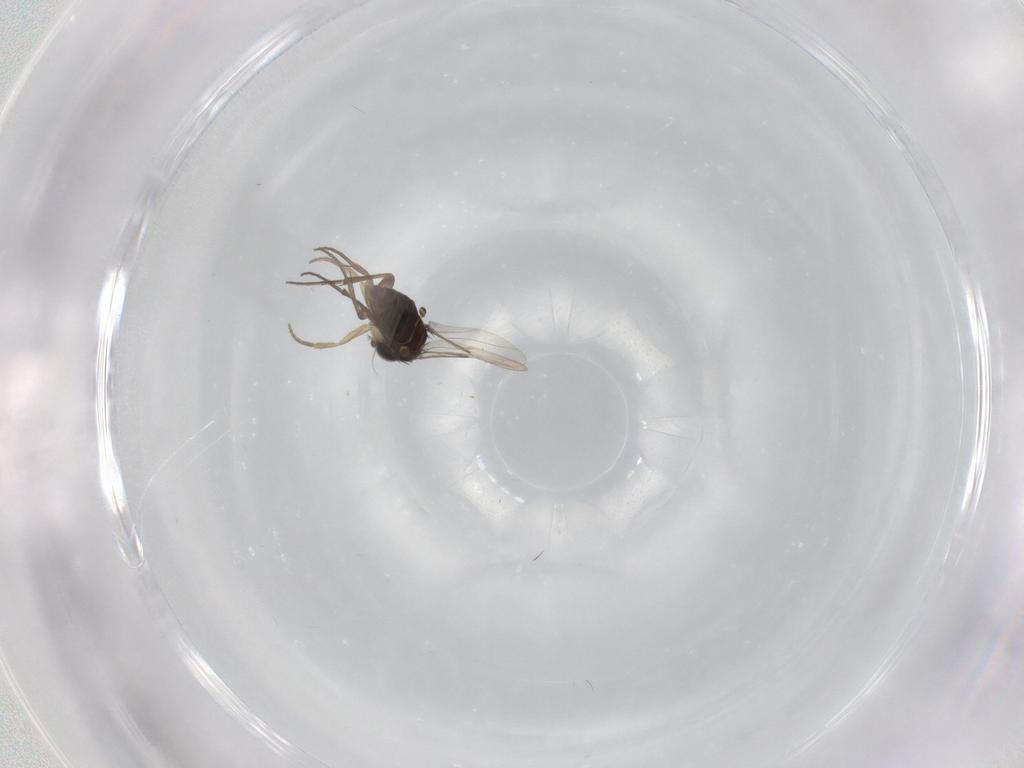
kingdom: Animalia
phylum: Arthropoda
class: Insecta
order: Diptera
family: Phoridae
